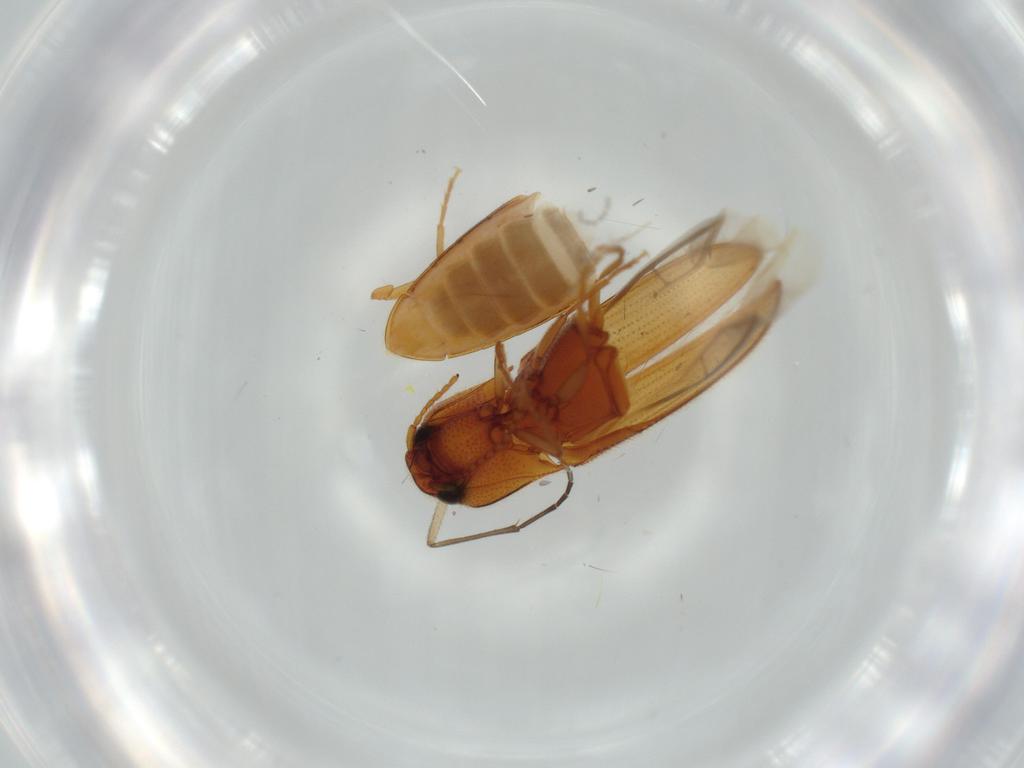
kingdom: Animalia
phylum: Arthropoda
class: Insecta
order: Coleoptera
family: Elateridae
